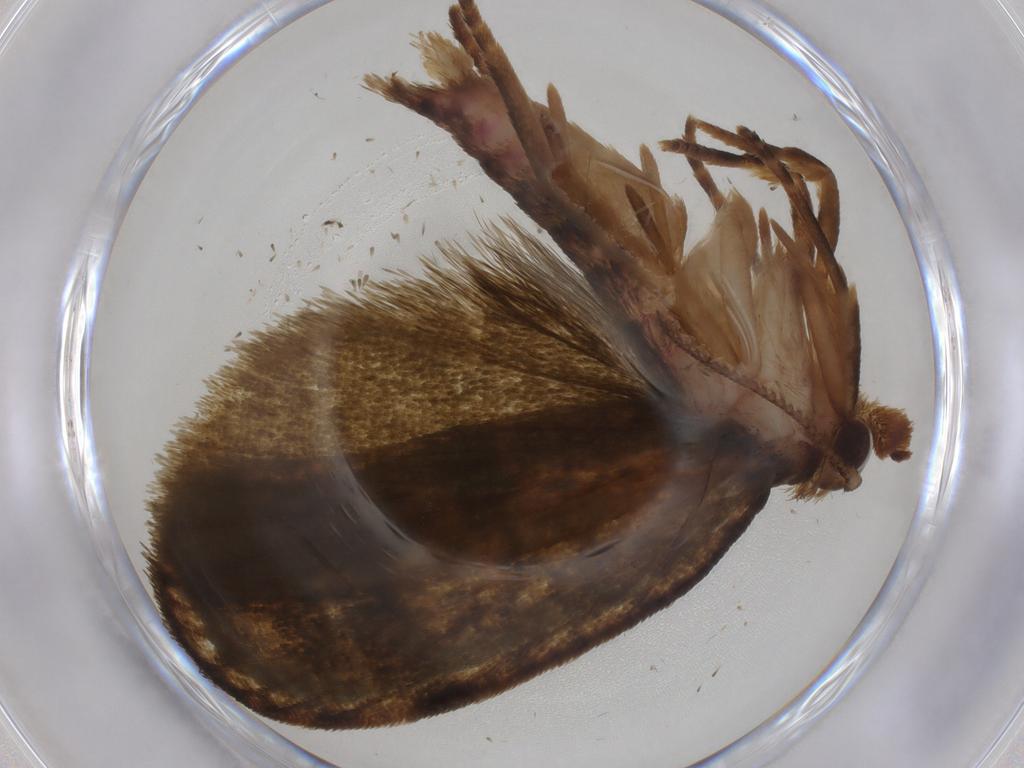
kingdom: Animalia
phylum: Arthropoda
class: Insecta
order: Lepidoptera
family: Geometridae
